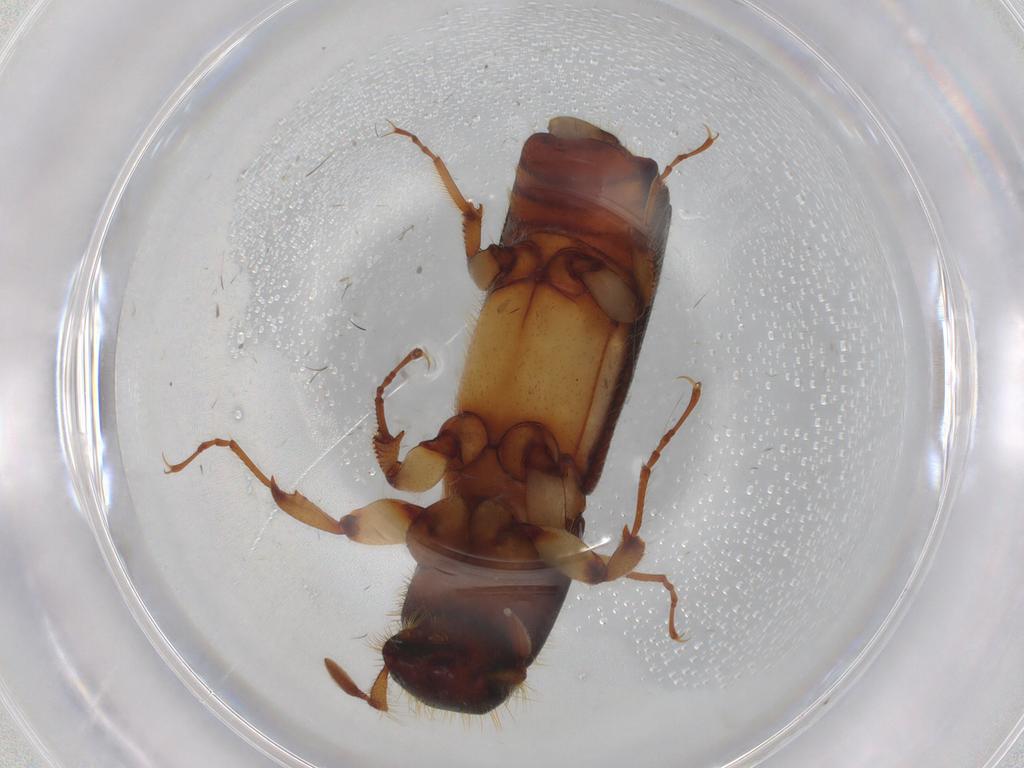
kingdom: Animalia
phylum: Arthropoda
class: Insecta
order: Coleoptera
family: Curculionidae
